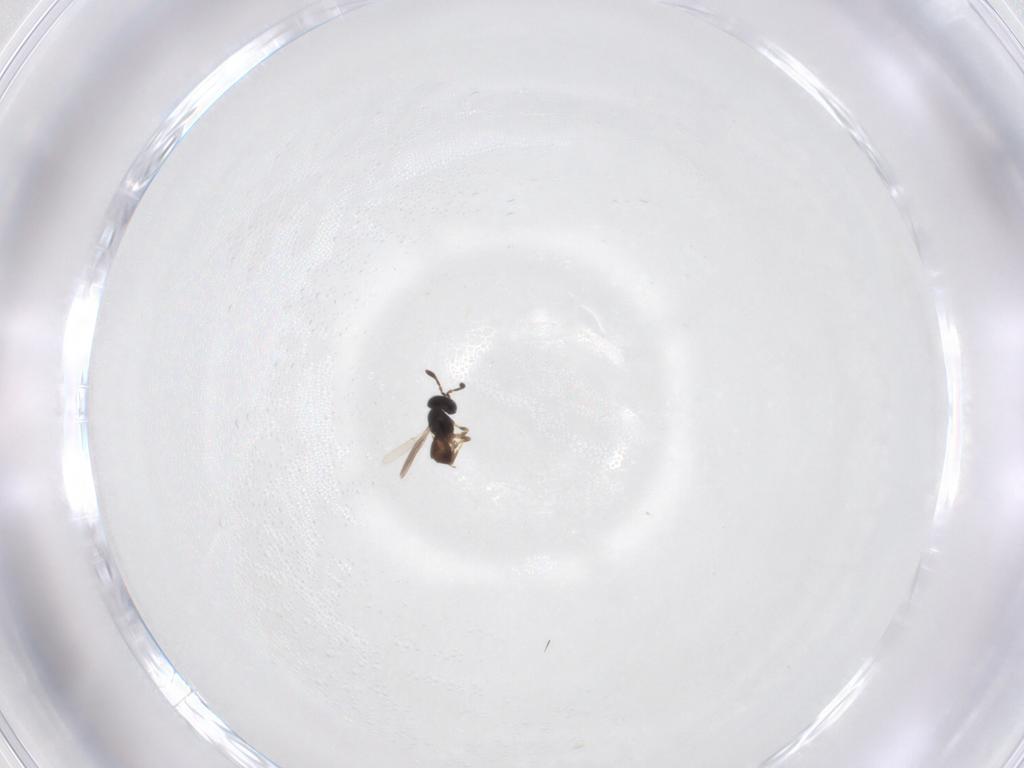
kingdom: Animalia
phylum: Arthropoda
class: Insecta
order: Hymenoptera
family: Scelionidae
